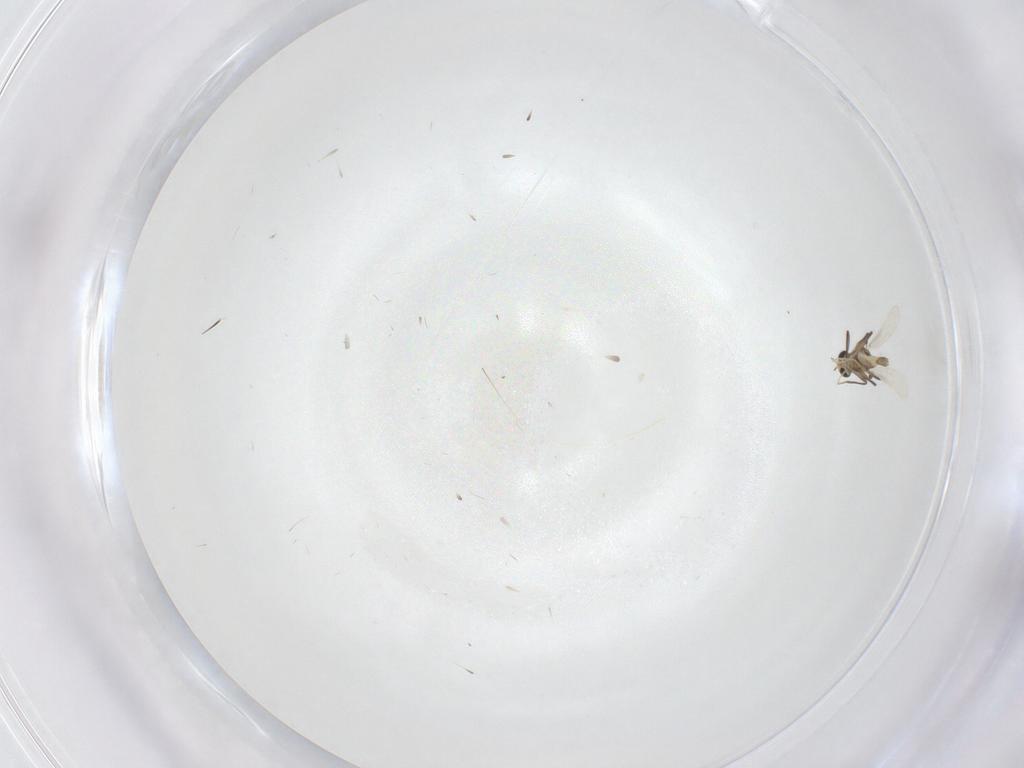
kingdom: Animalia
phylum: Arthropoda
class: Insecta
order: Diptera
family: Chironomidae
